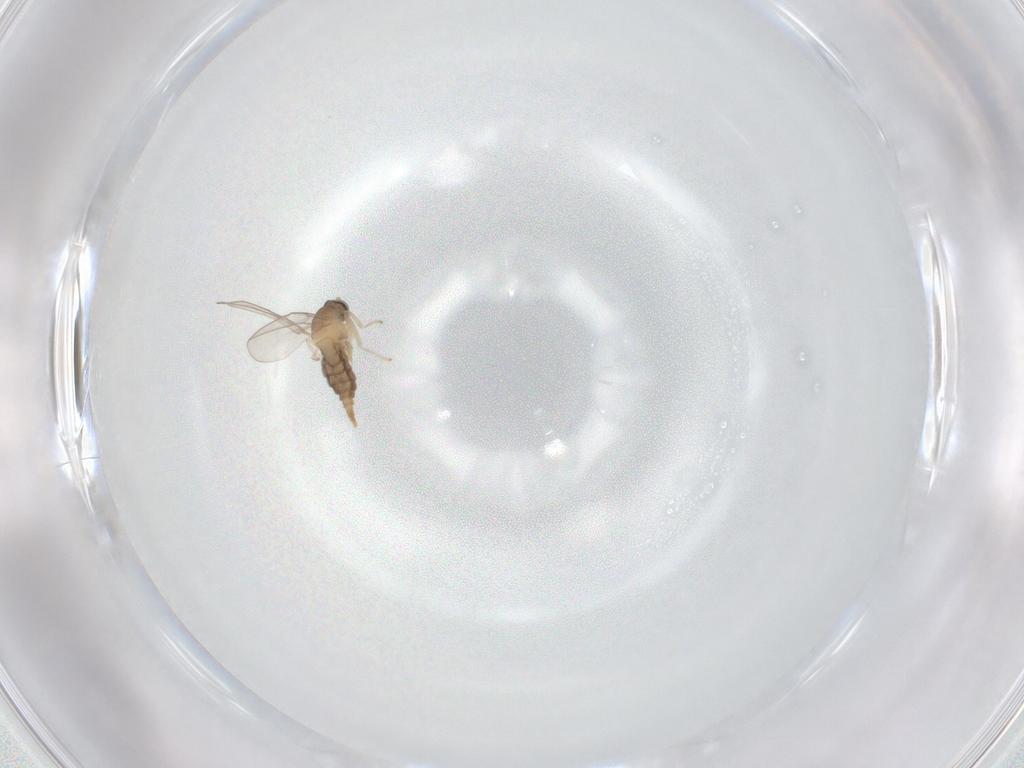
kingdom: Animalia
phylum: Arthropoda
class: Insecta
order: Diptera
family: Cecidomyiidae
